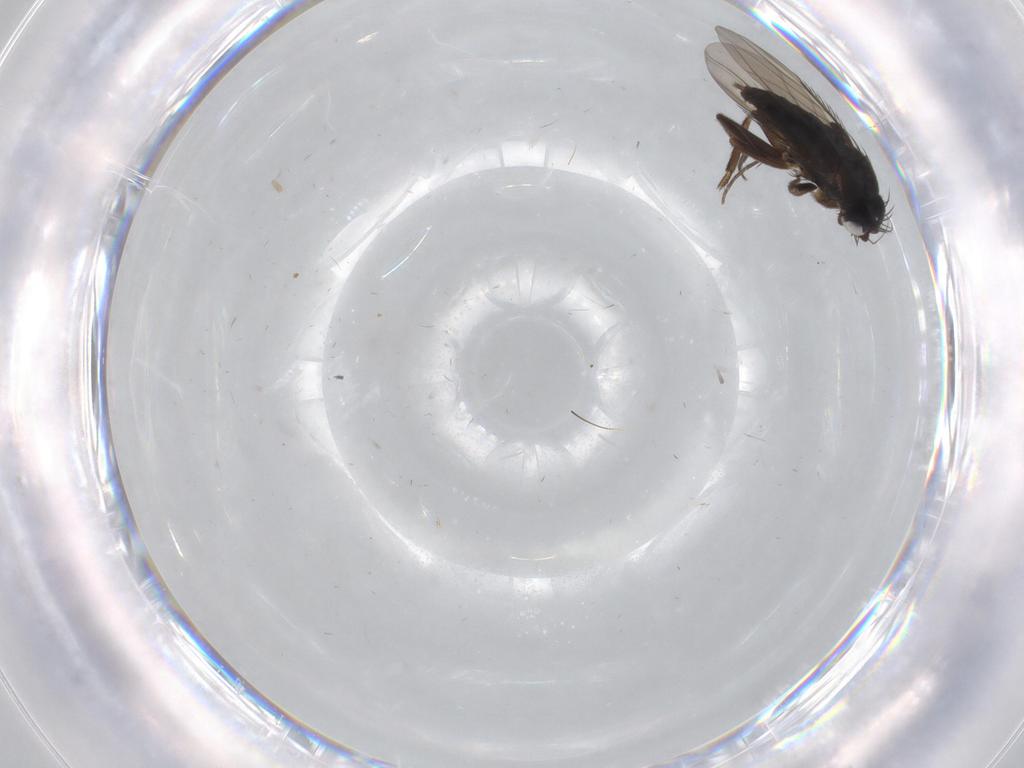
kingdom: Animalia
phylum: Arthropoda
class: Insecta
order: Diptera
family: Phoridae
